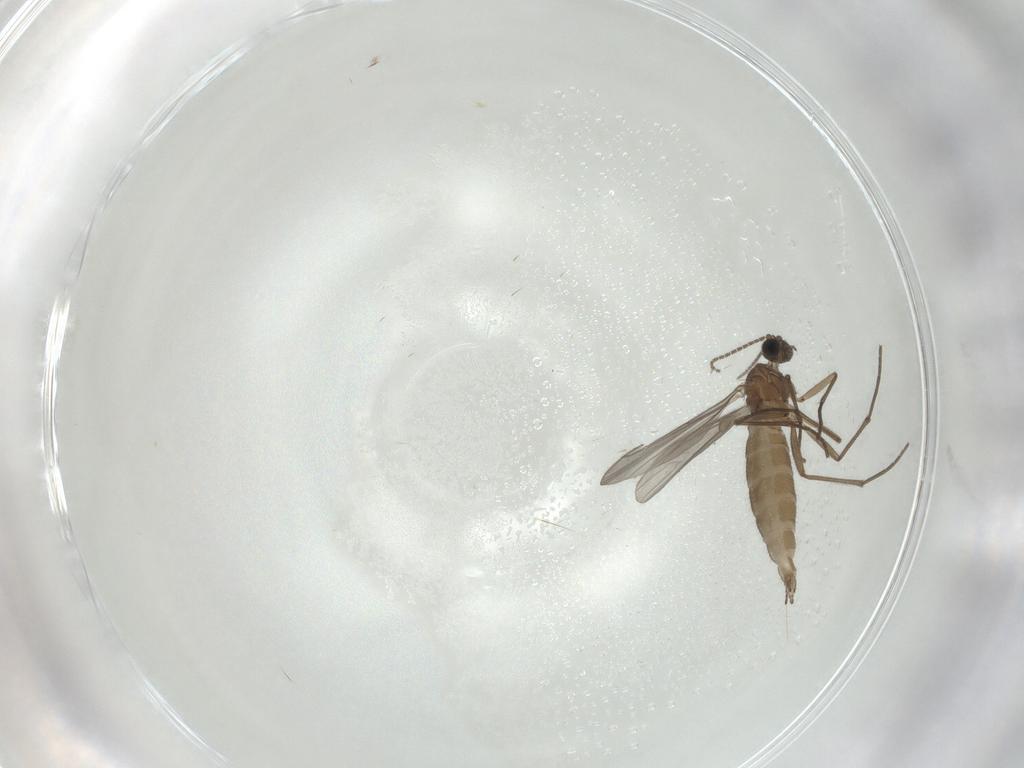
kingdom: Animalia
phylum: Arthropoda
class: Insecta
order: Diptera
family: Sciaridae
